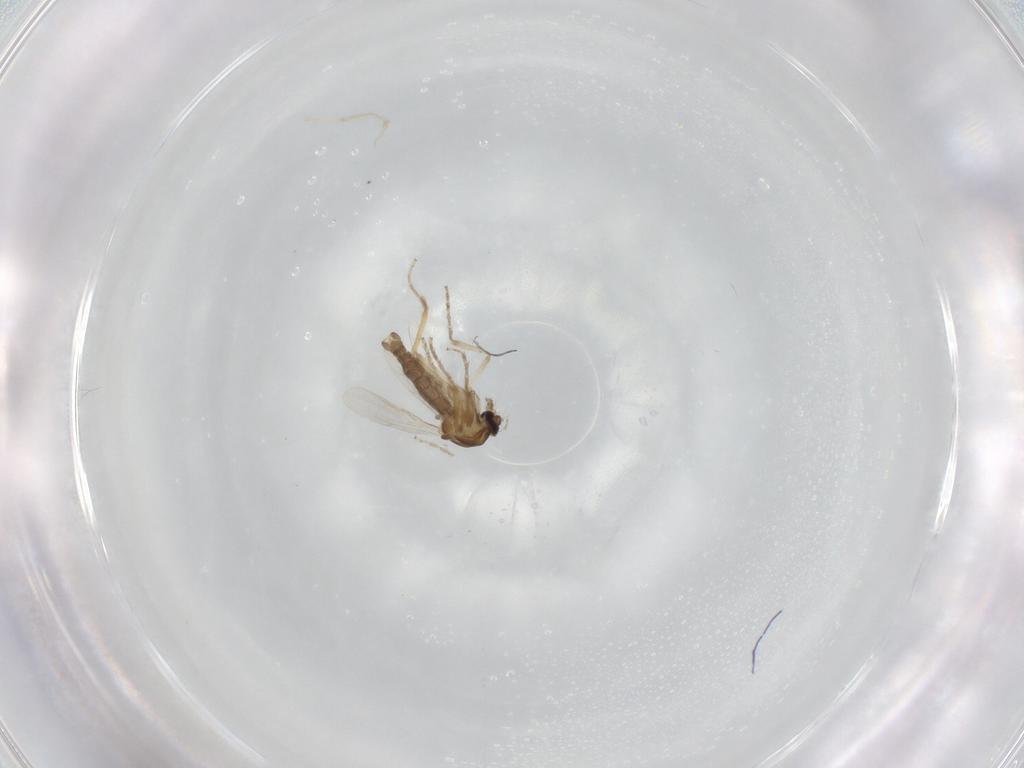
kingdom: Animalia
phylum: Arthropoda
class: Insecta
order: Diptera
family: Ceratopogonidae
